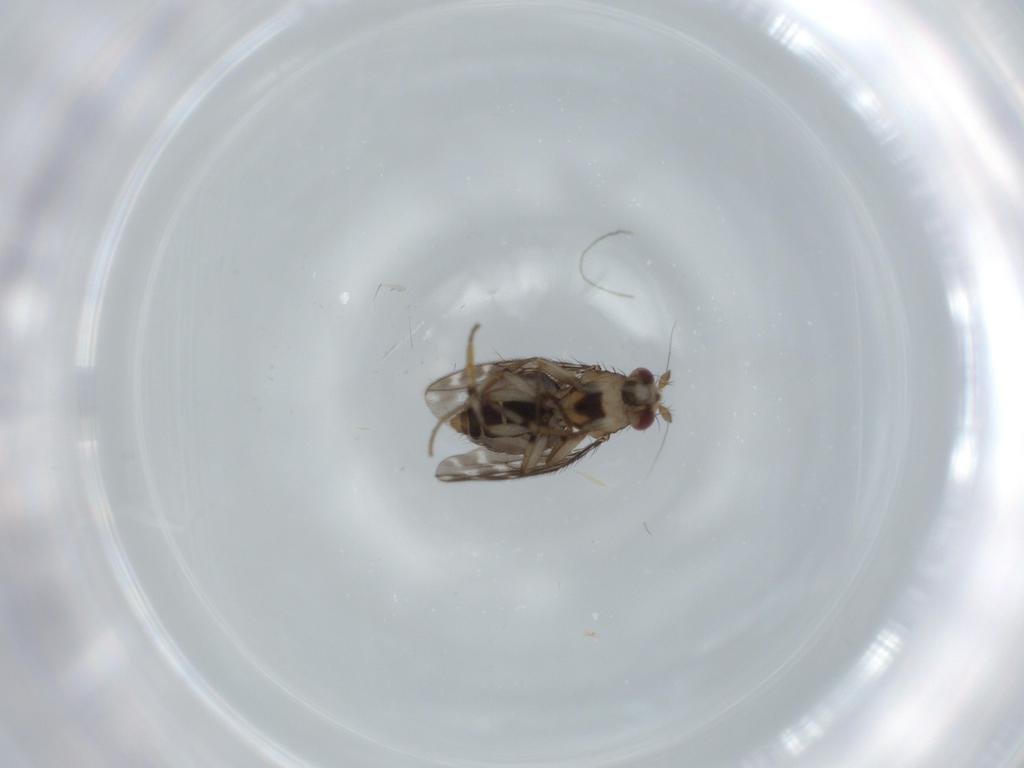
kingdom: Animalia
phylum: Arthropoda
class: Insecta
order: Diptera
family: Sphaeroceridae
